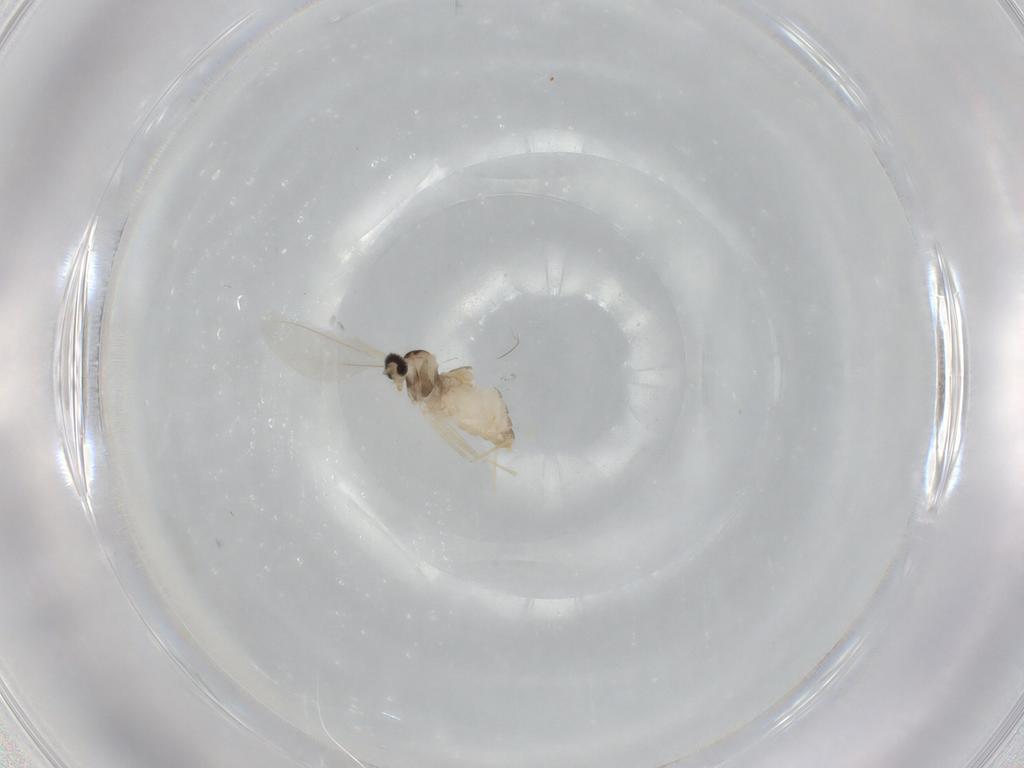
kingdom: Animalia
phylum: Arthropoda
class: Insecta
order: Diptera
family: Cecidomyiidae
